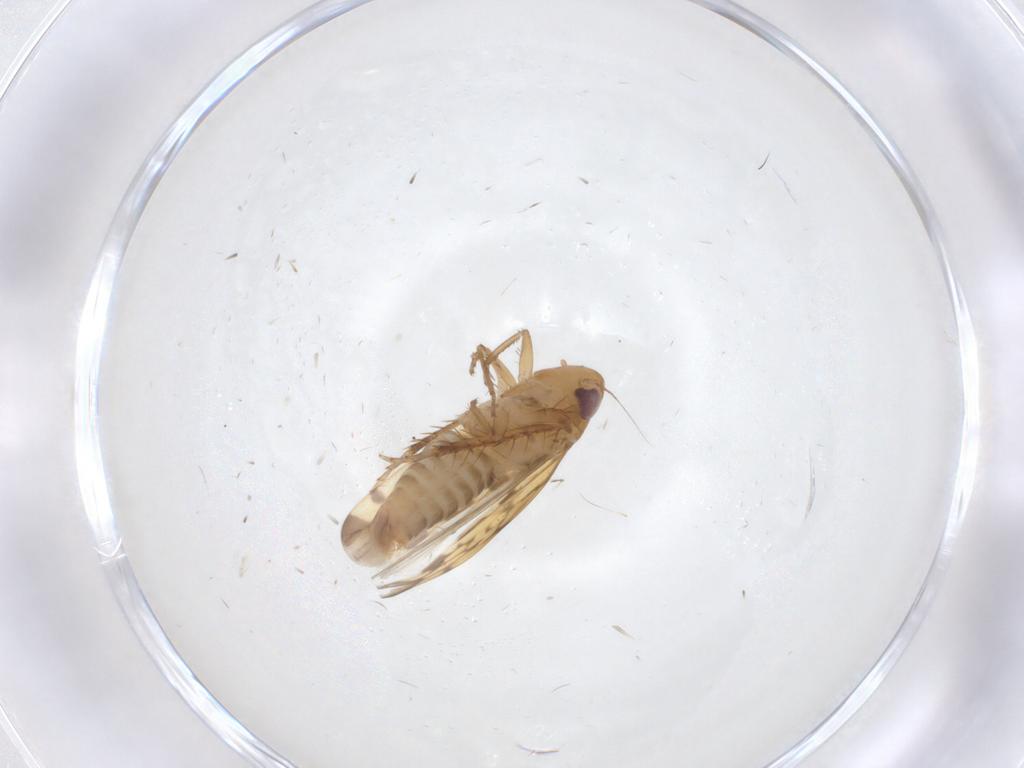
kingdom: Animalia
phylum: Arthropoda
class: Insecta
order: Hemiptera
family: Cicadellidae
